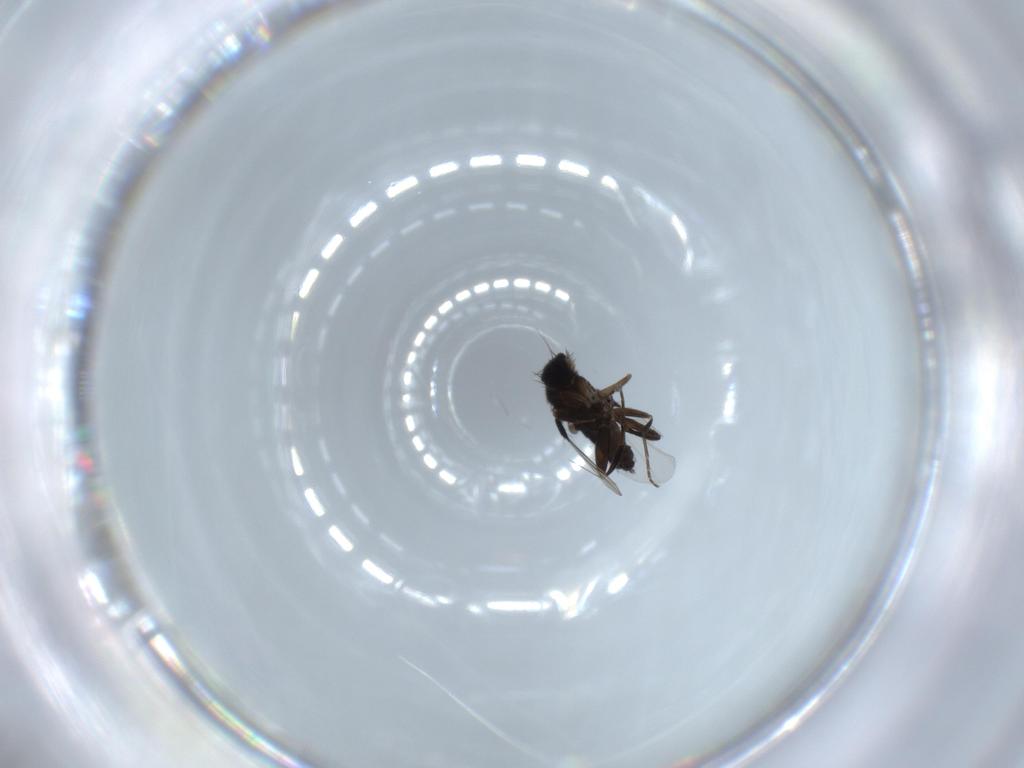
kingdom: Animalia
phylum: Arthropoda
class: Insecta
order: Diptera
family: Phoridae
